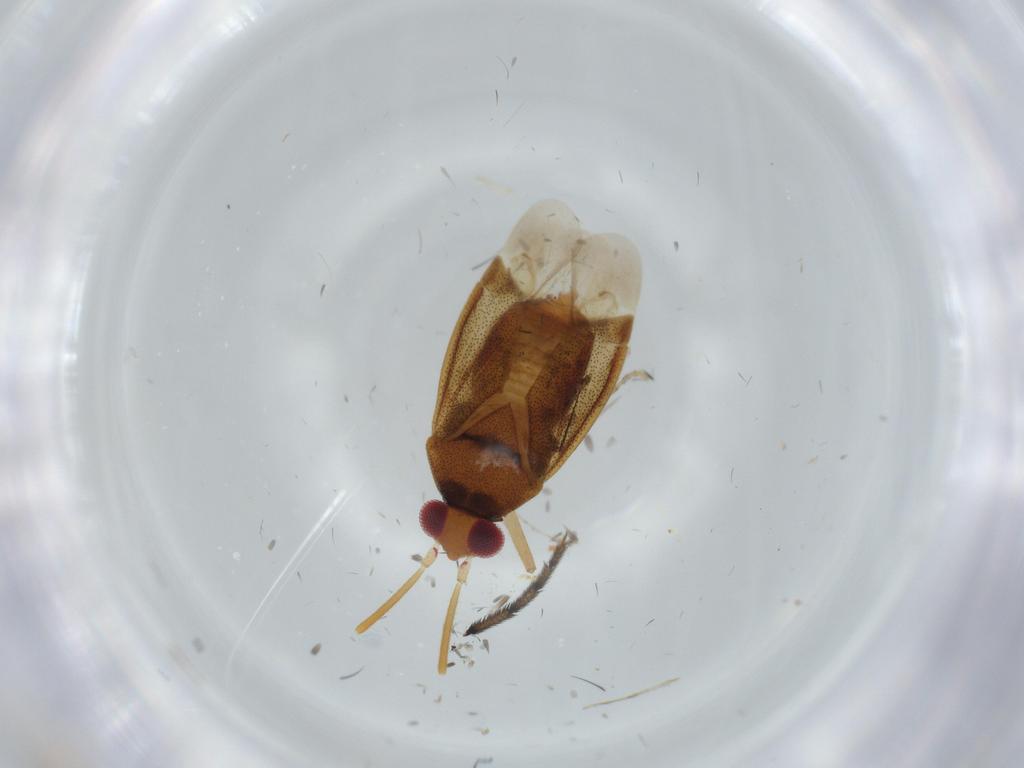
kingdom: Animalia
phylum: Arthropoda
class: Insecta
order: Hemiptera
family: Miridae
